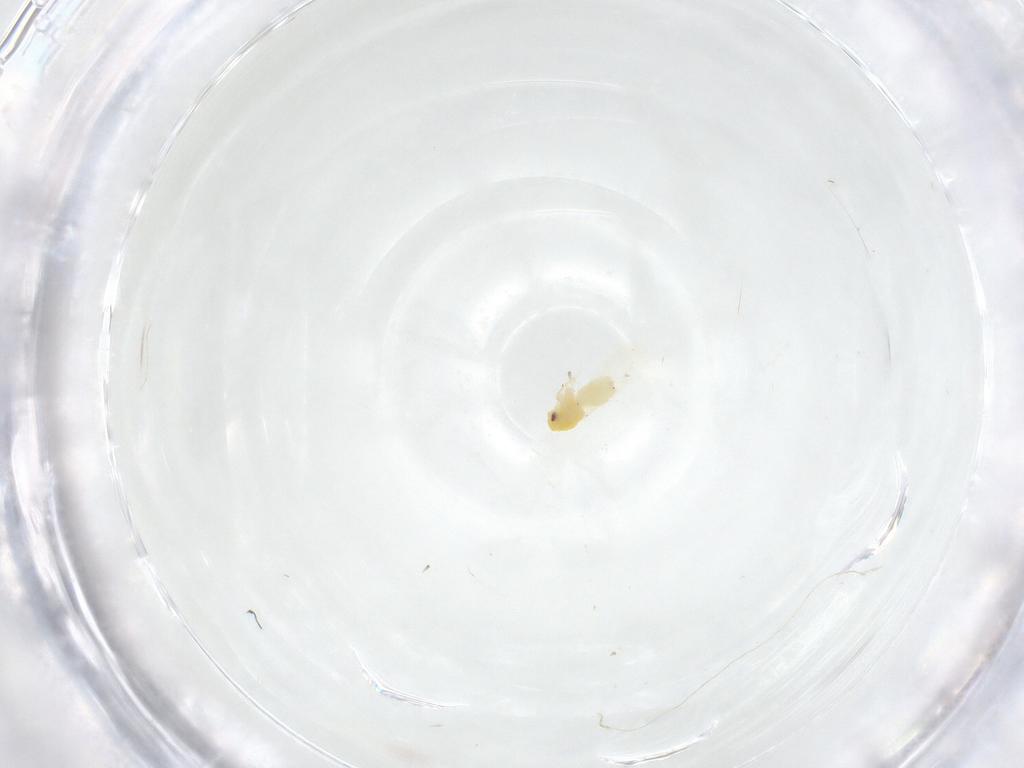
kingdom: Animalia
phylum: Arthropoda
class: Insecta
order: Hemiptera
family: Aleyrodidae
